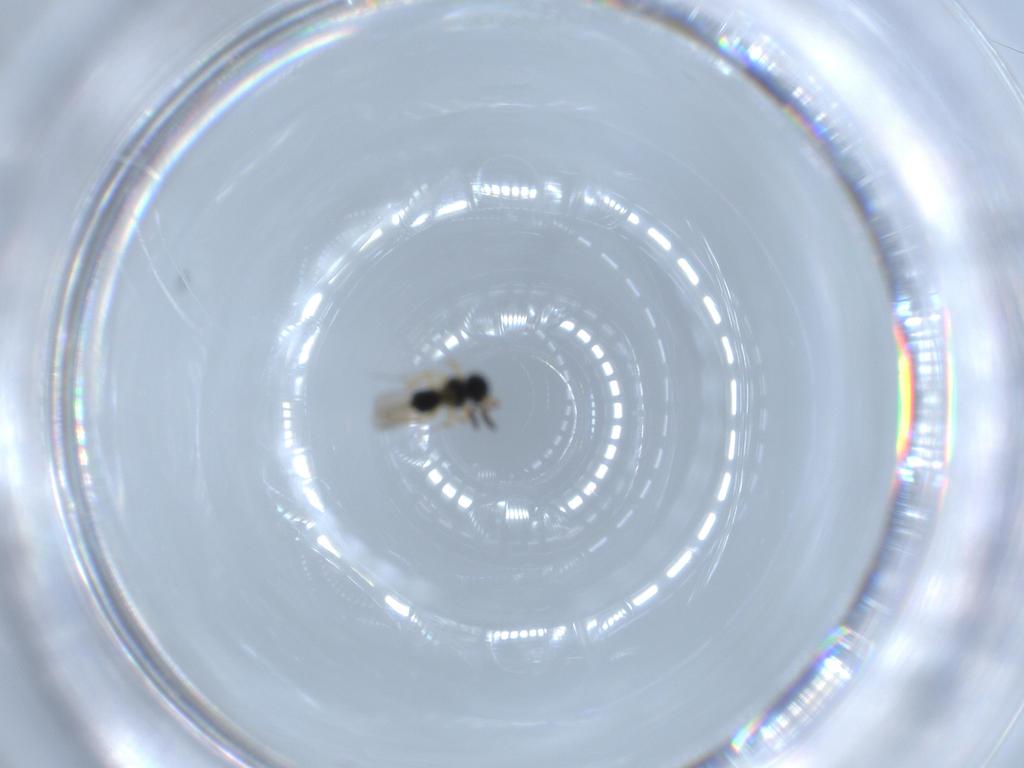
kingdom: Animalia
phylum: Arthropoda
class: Insecta
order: Hymenoptera
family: Scelionidae
